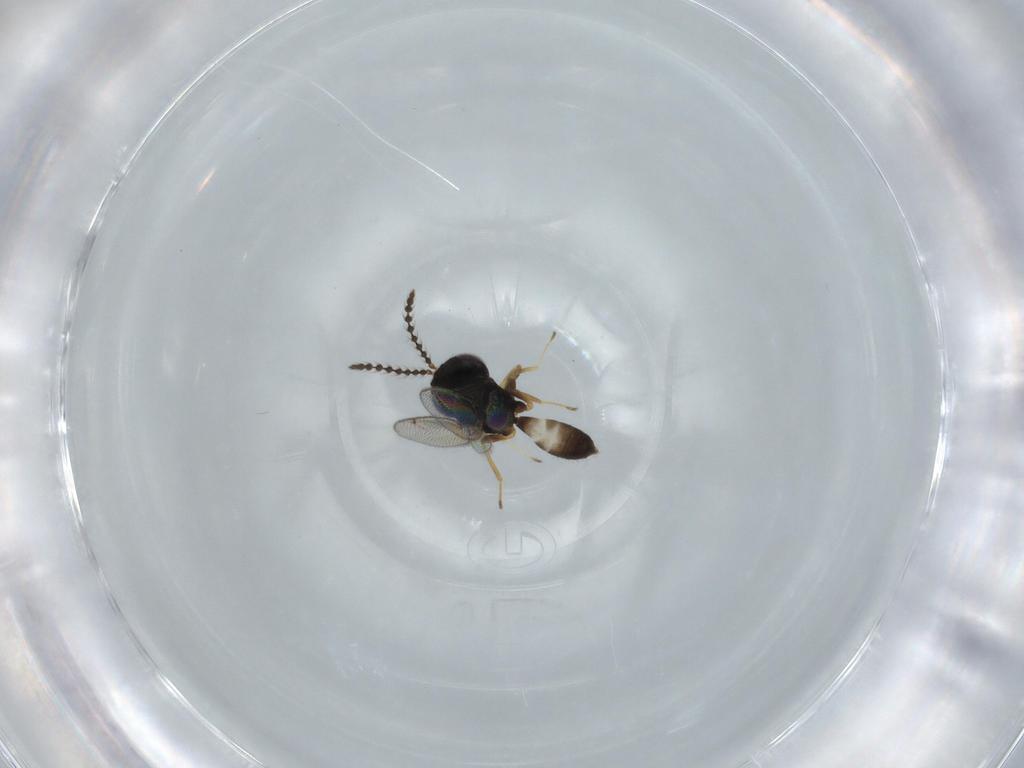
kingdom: Animalia
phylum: Arthropoda
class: Insecta
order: Hymenoptera
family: Pteromalidae
